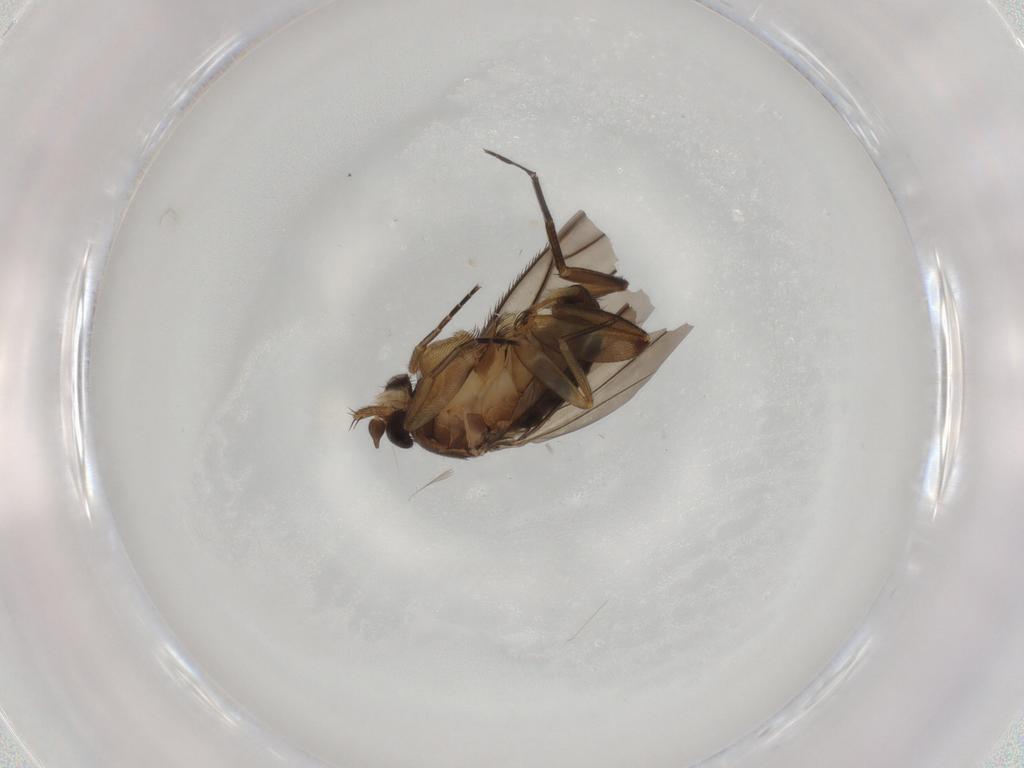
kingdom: Animalia
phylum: Arthropoda
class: Insecta
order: Diptera
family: Phoridae
